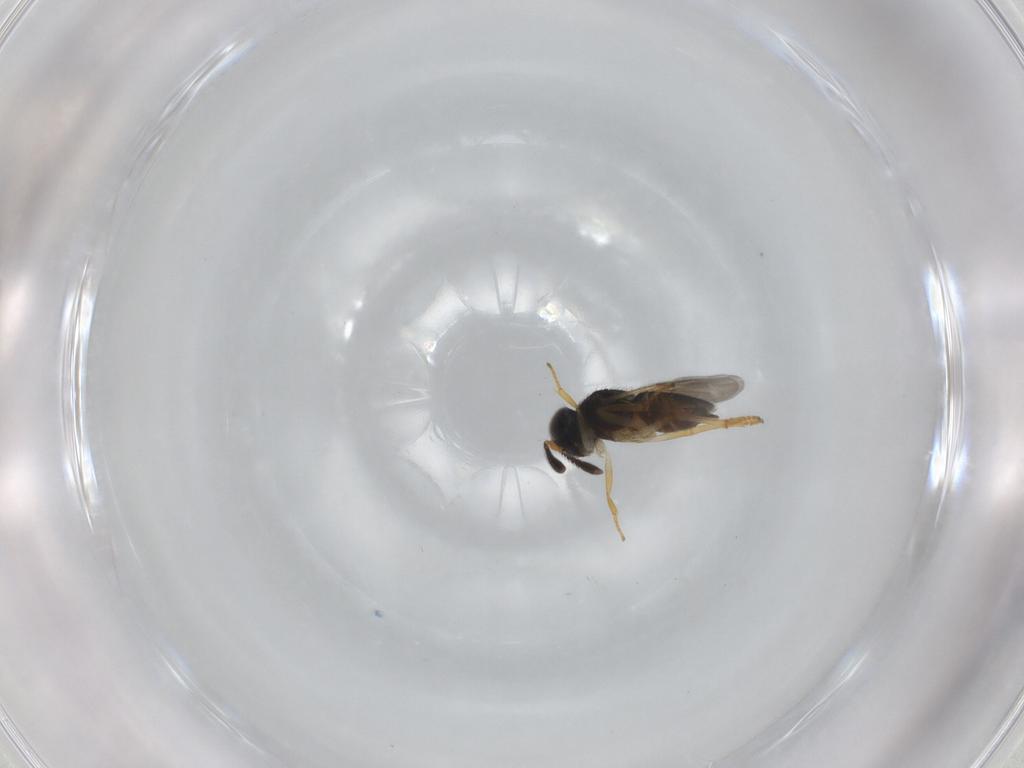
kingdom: Animalia
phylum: Arthropoda
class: Insecta
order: Hymenoptera
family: Encyrtidae
